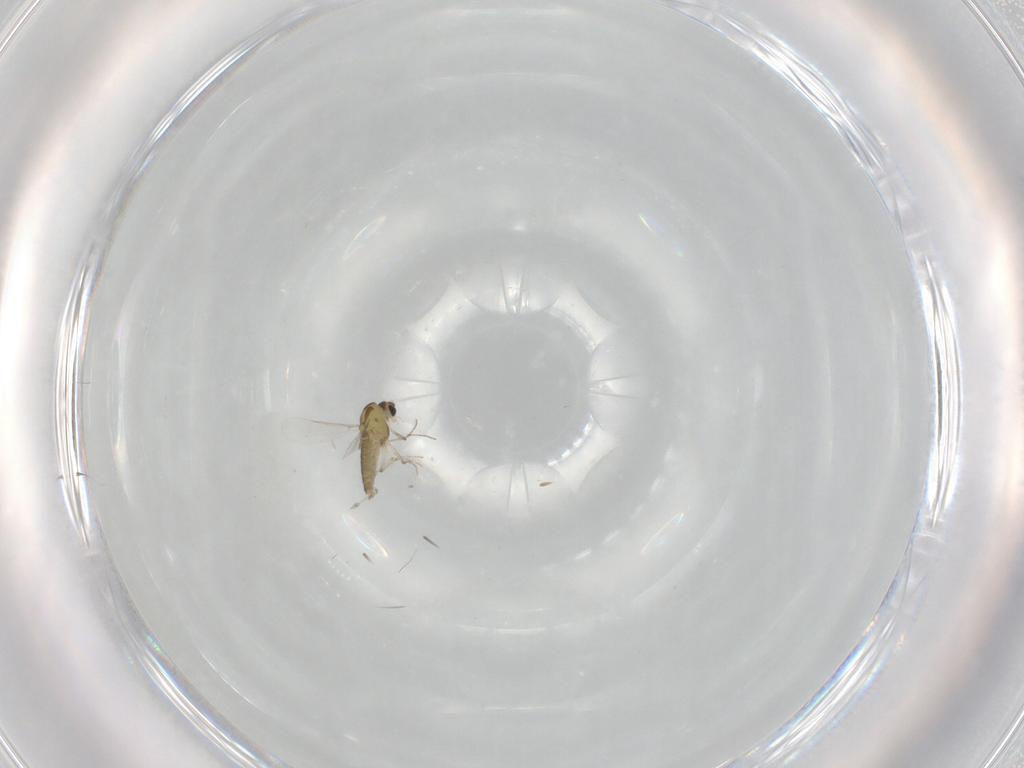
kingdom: Animalia
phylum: Arthropoda
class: Insecta
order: Diptera
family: Chironomidae
